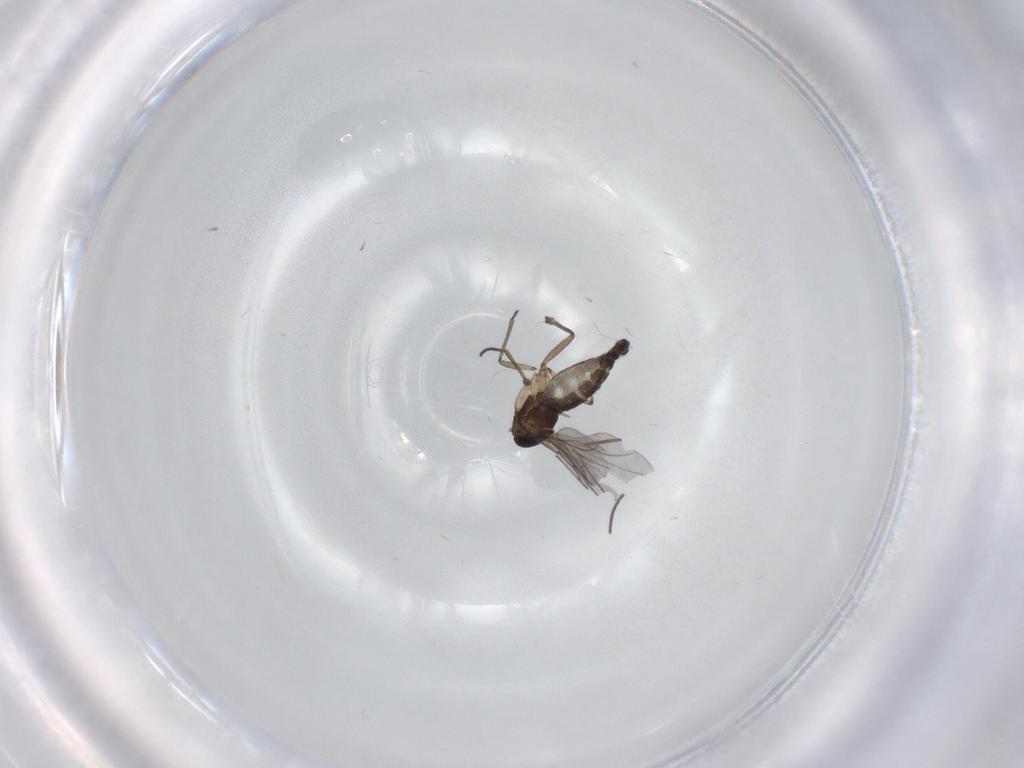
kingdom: Animalia
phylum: Arthropoda
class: Insecta
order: Diptera
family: Sciaridae
